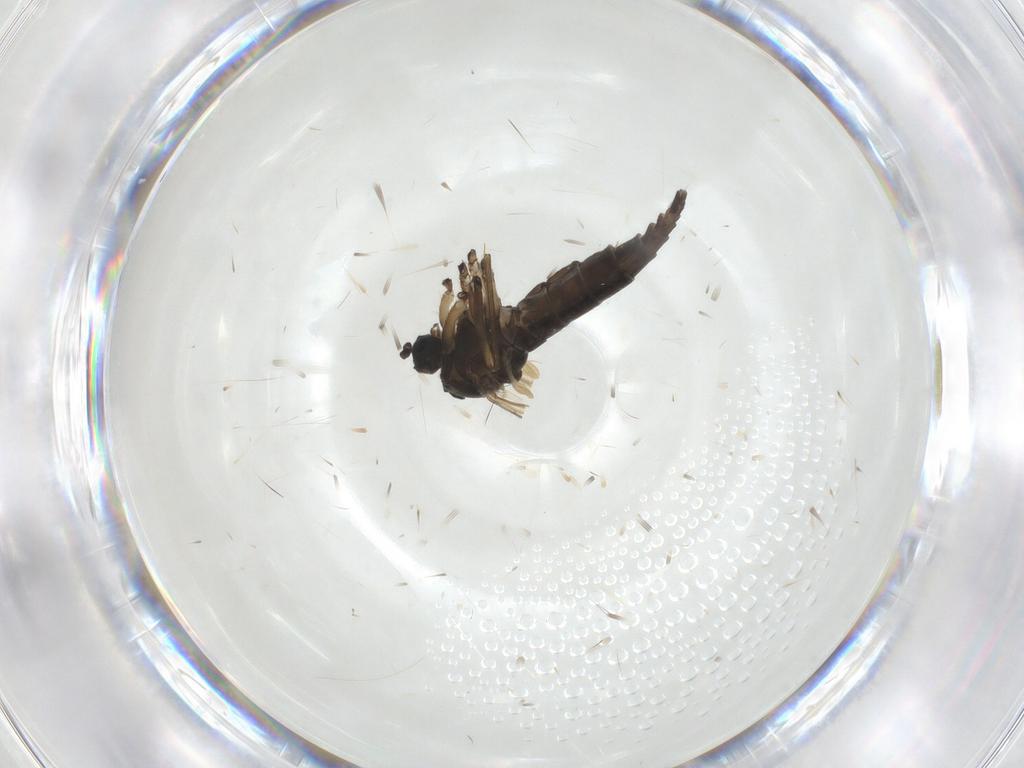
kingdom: Animalia
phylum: Arthropoda
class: Insecta
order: Diptera
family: Sciaridae
